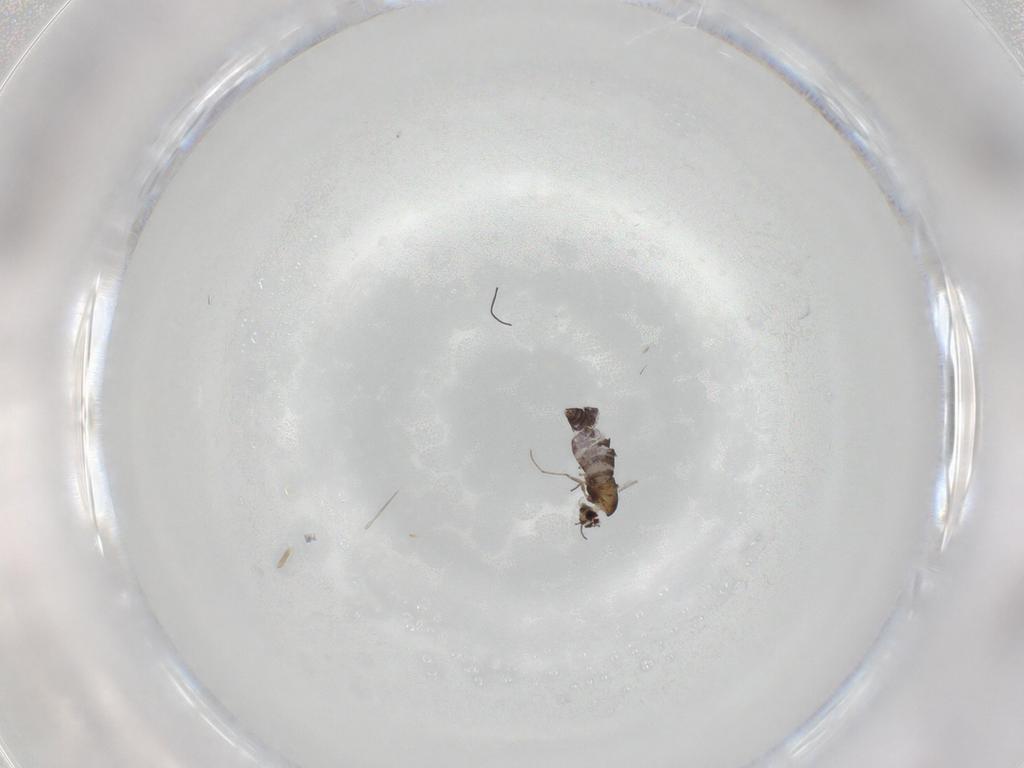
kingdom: Animalia
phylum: Arthropoda
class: Insecta
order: Diptera
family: Chironomidae
